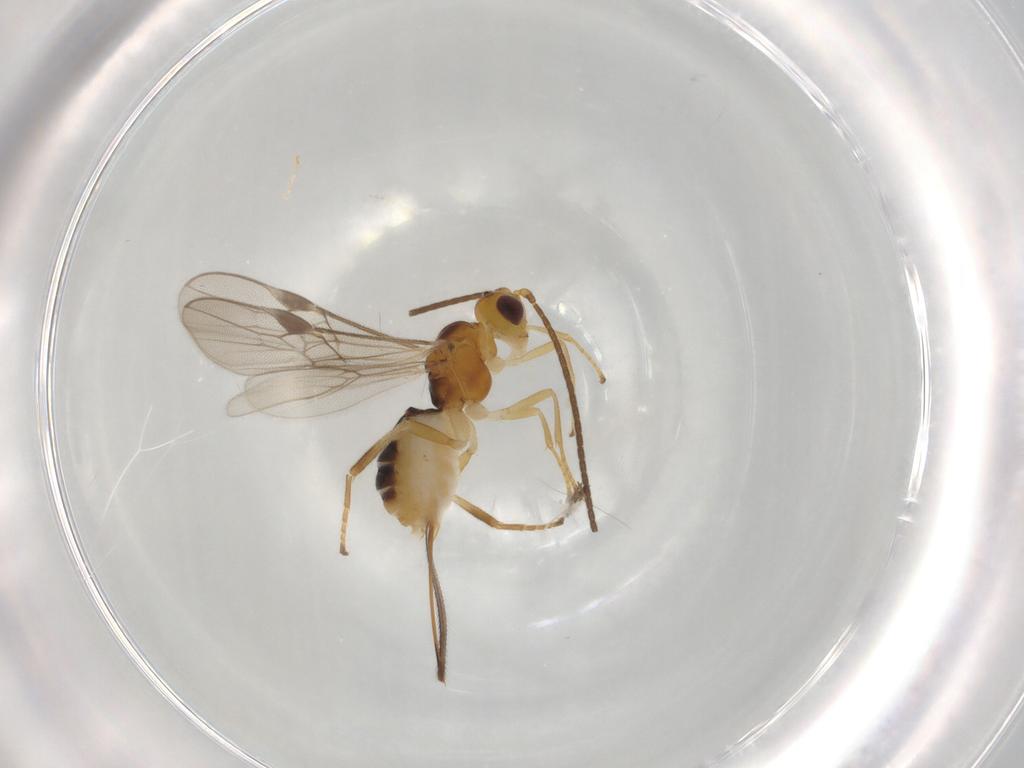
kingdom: Animalia
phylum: Arthropoda
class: Insecta
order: Hymenoptera
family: Braconidae
